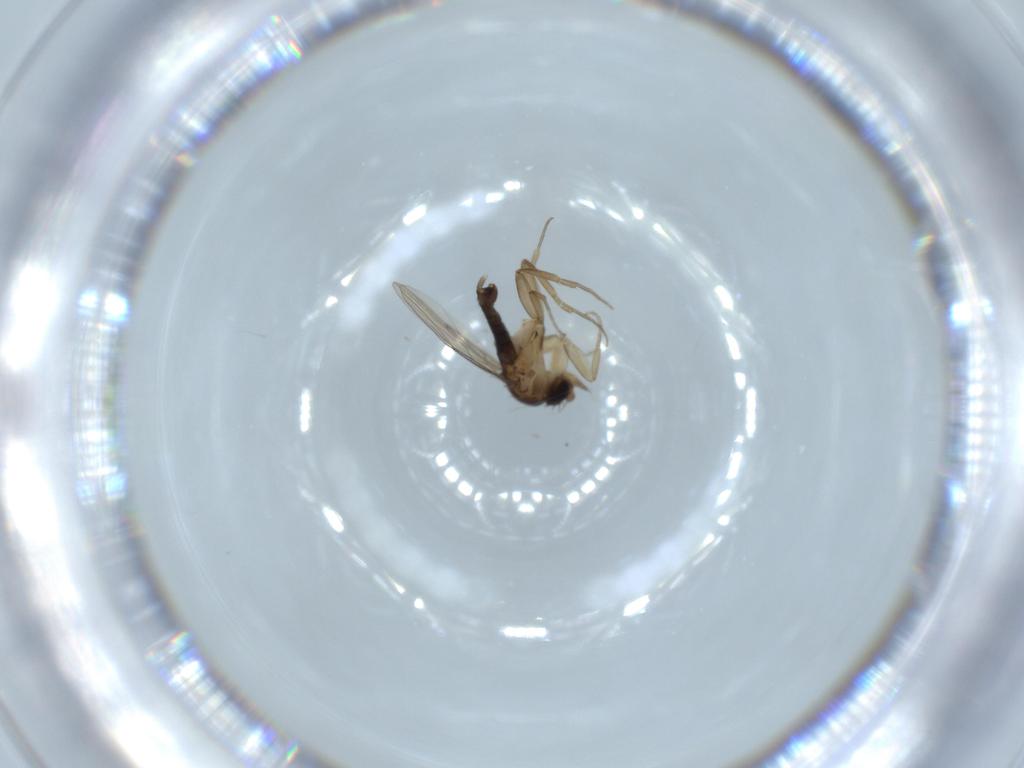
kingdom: Animalia
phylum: Arthropoda
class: Insecta
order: Diptera
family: Phoridae
